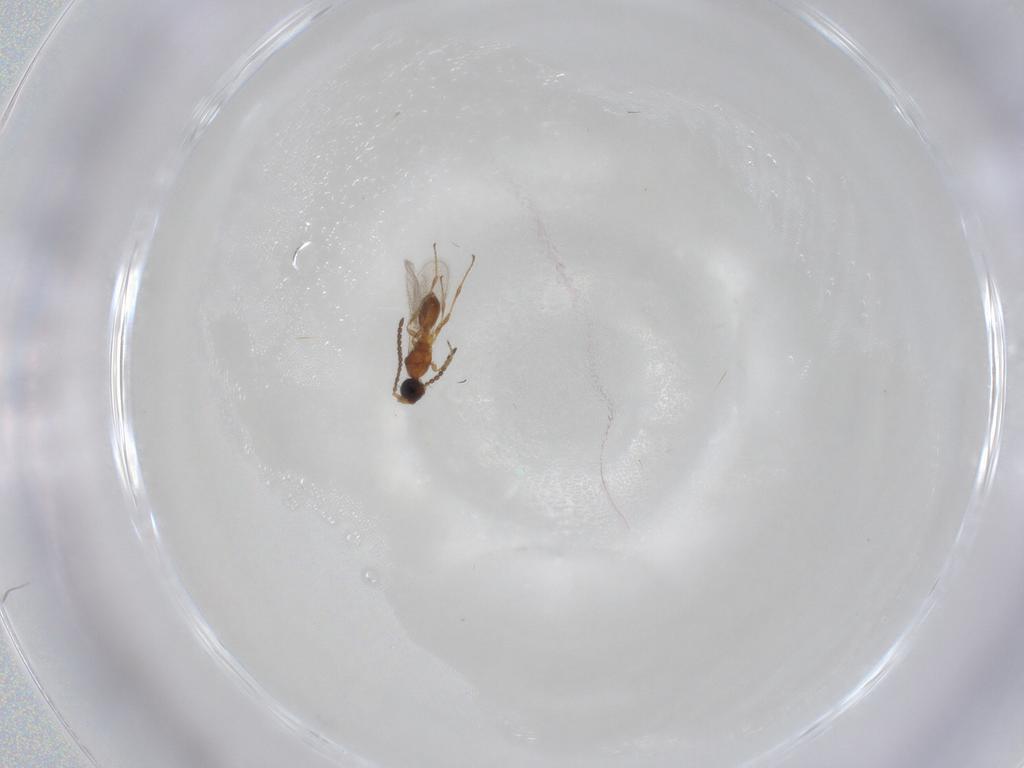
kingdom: Animalia
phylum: Arthropoda
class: Insecta
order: Hymenoptera
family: Diapriidae
